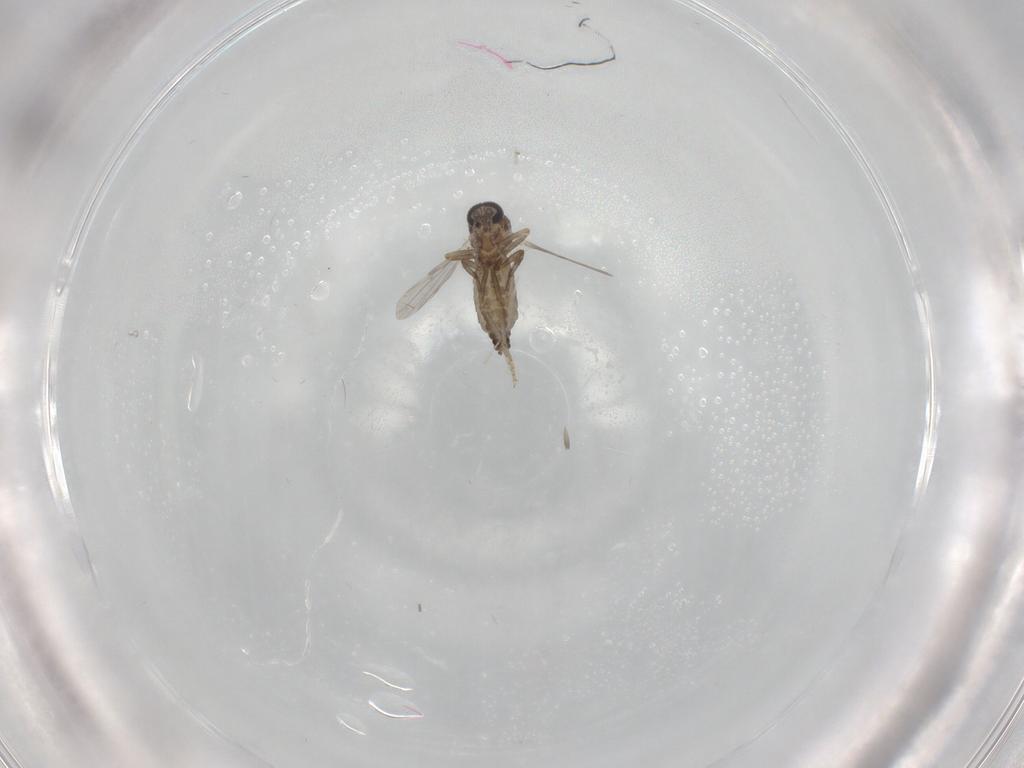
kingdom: Animalia
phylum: Arthropoda
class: Insecta
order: Diptera
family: Ceratopogonidae
